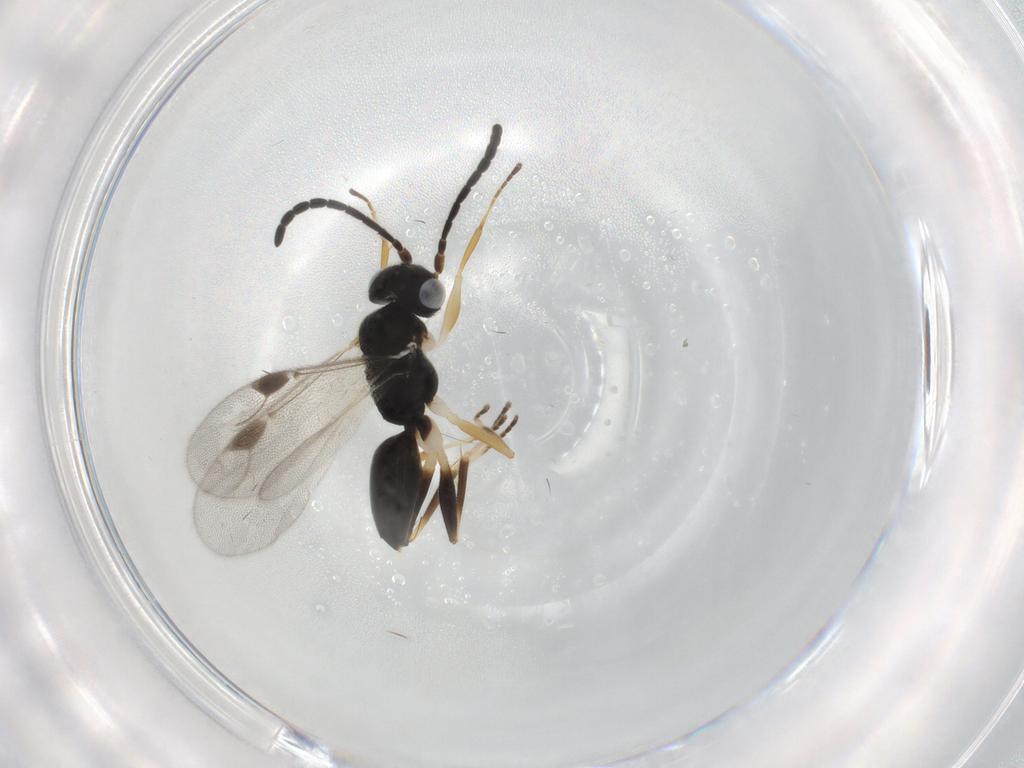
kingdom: Animalia
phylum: Arthropoda
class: Insecta
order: Hymenoptera
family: Dryinidae
